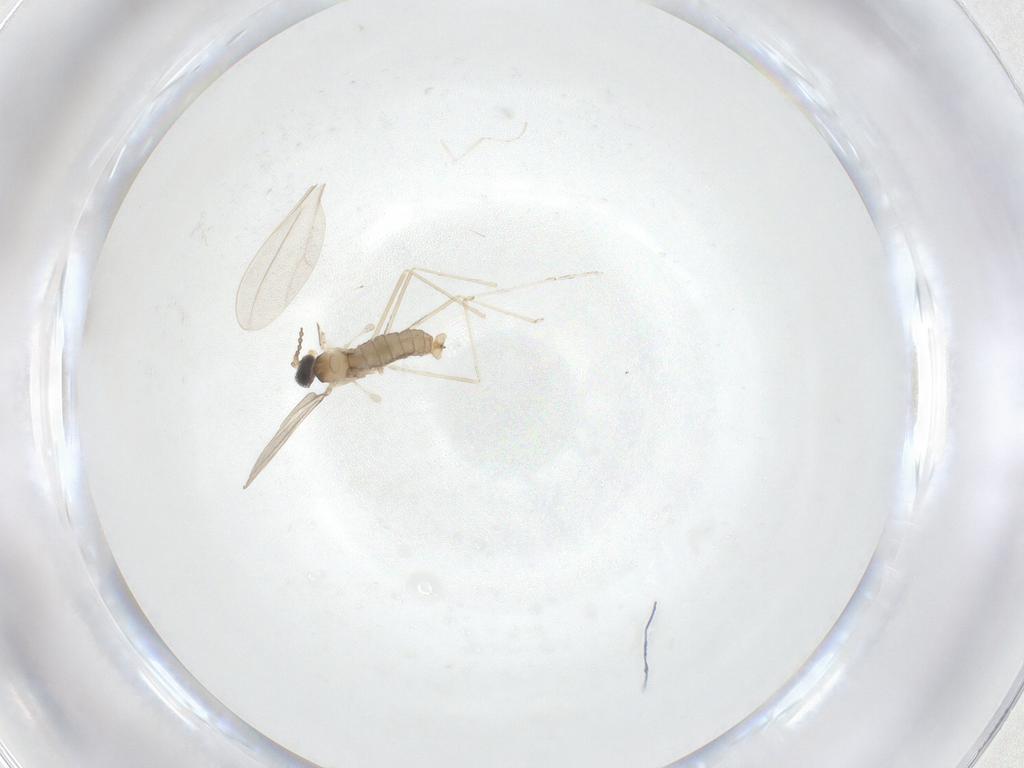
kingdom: Animalia
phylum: Arthropoda
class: Insecta
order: Diptera
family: Cecidomyiidae
